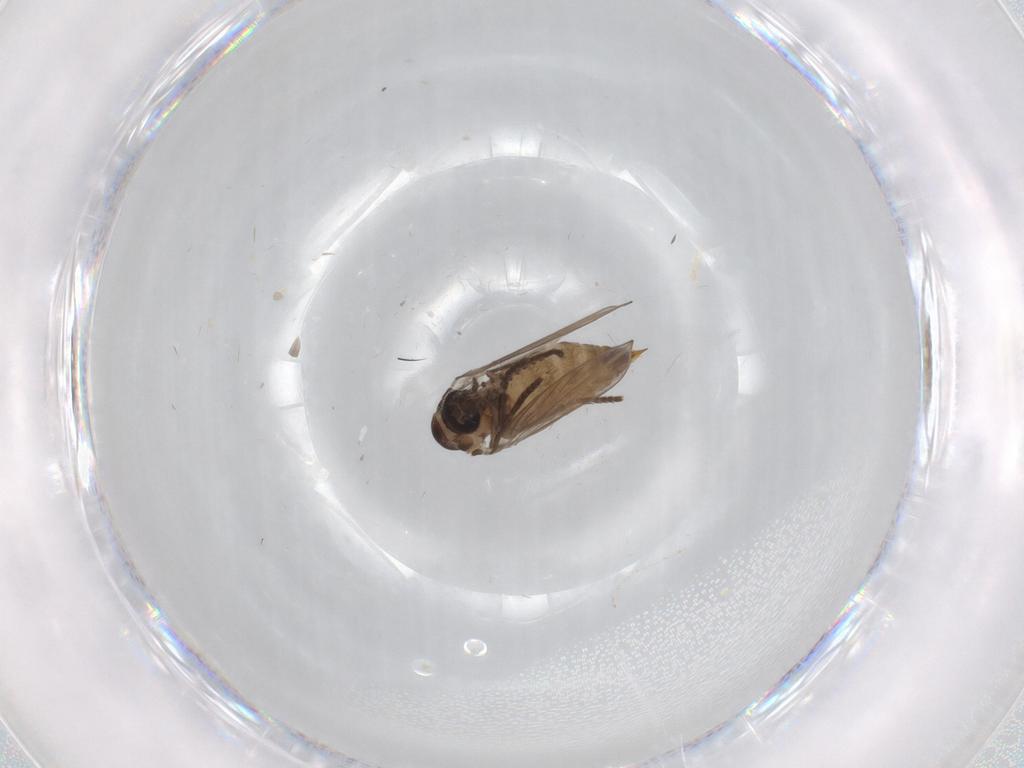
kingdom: Animalia
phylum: Arthropoda
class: Insecta
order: Diptera
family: Psychodidae
